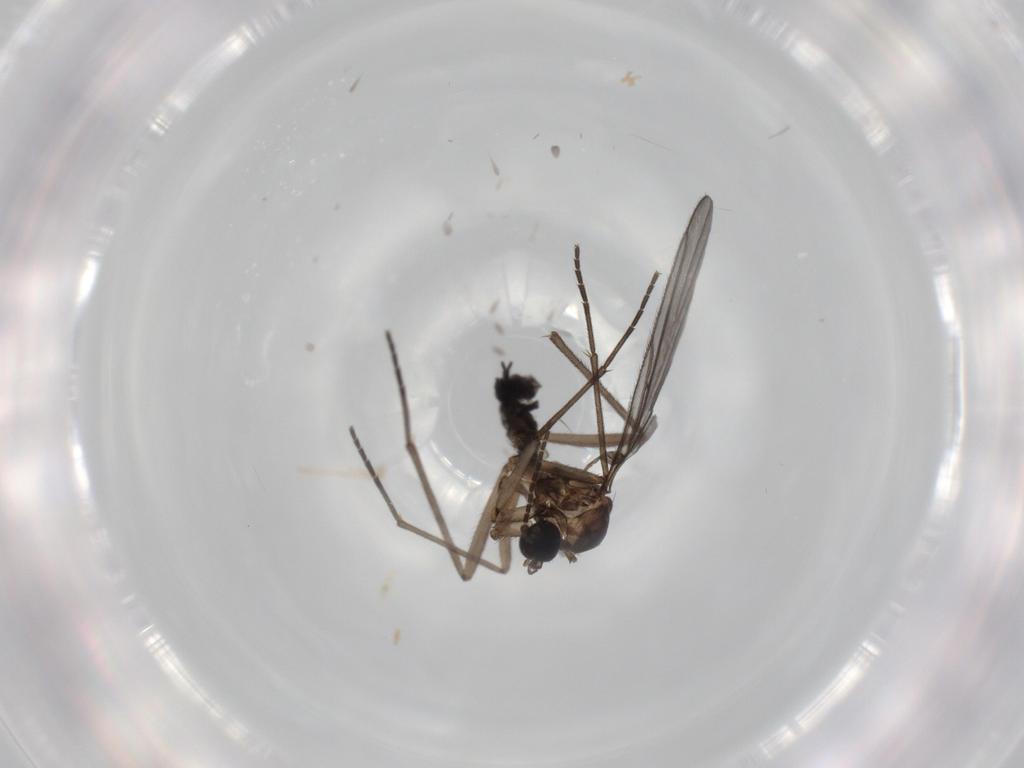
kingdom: Animalia
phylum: Arthropoda
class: Insecta
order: Diptera
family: Sciaridae
